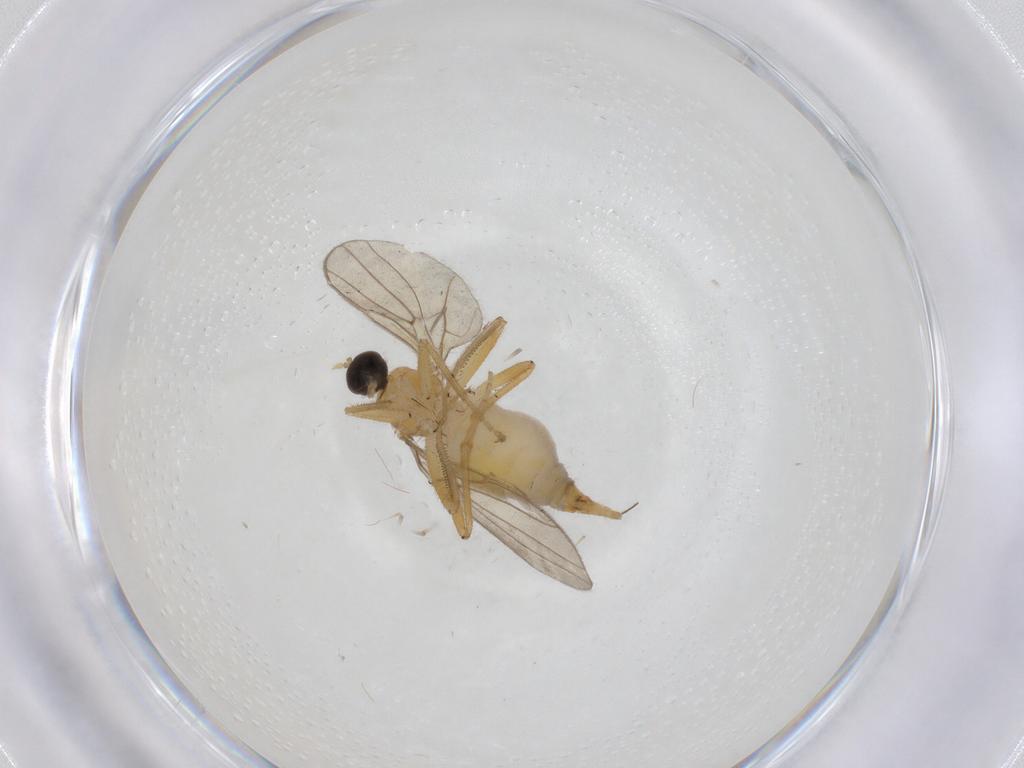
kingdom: Animalia
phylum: Arthropoda
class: Insecta
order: Diptera
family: Hybotidae
